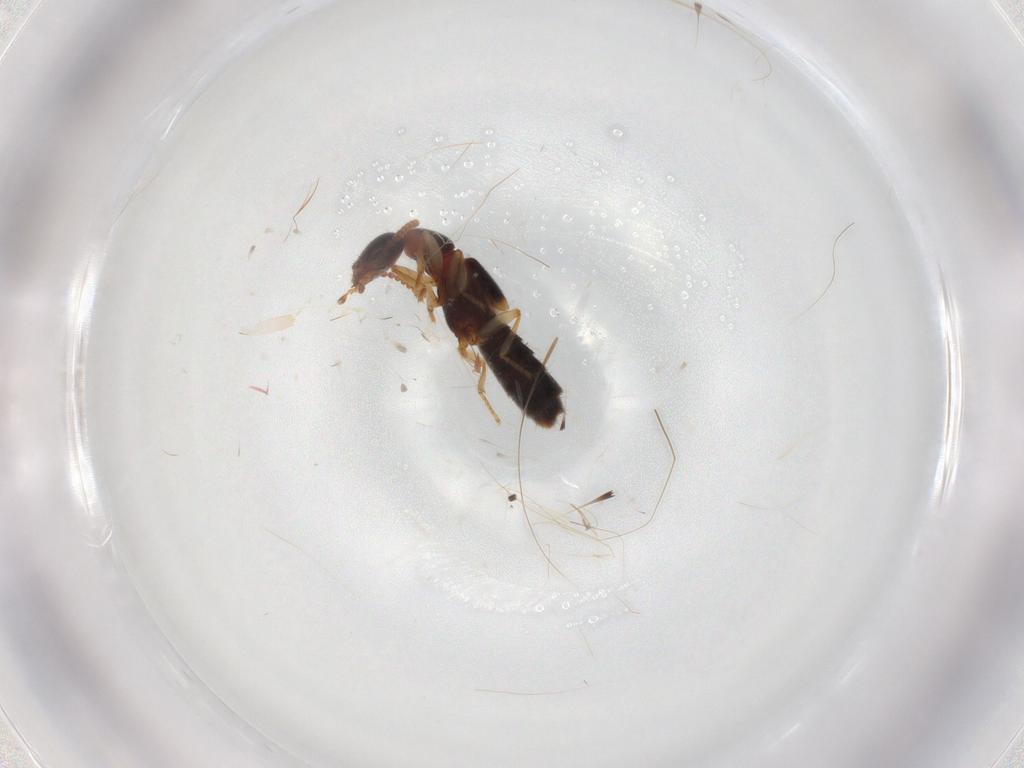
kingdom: Animalia
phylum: Arthropoda
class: Insecta
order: Coleoptera
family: Staphylinidae
